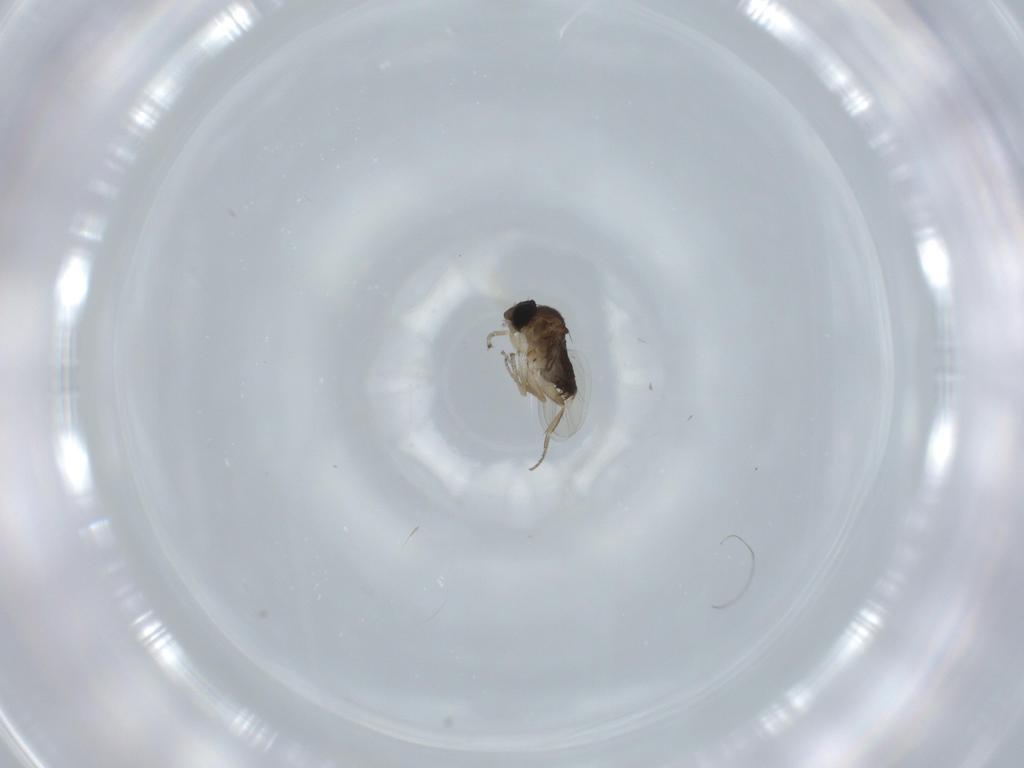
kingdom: Animalia
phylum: Arthropoda
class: Insecta
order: Diptera
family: Phoridae
